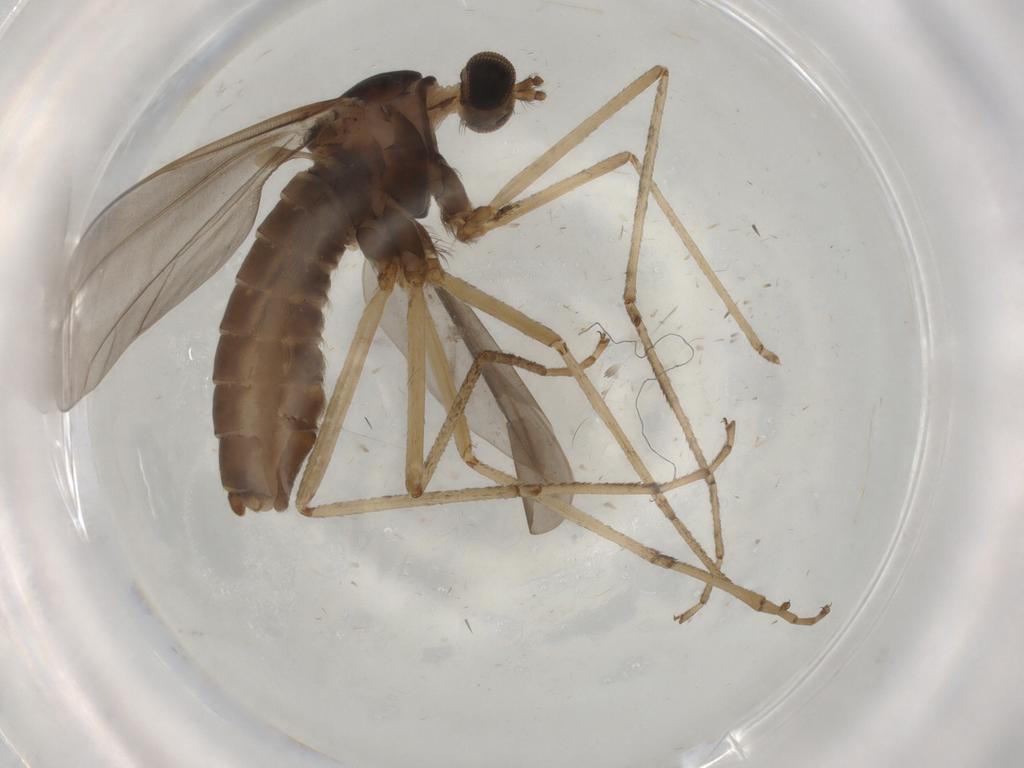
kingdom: Animalia
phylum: Arthropoda
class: Insecta
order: Diptera
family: Cecidomyiidae
